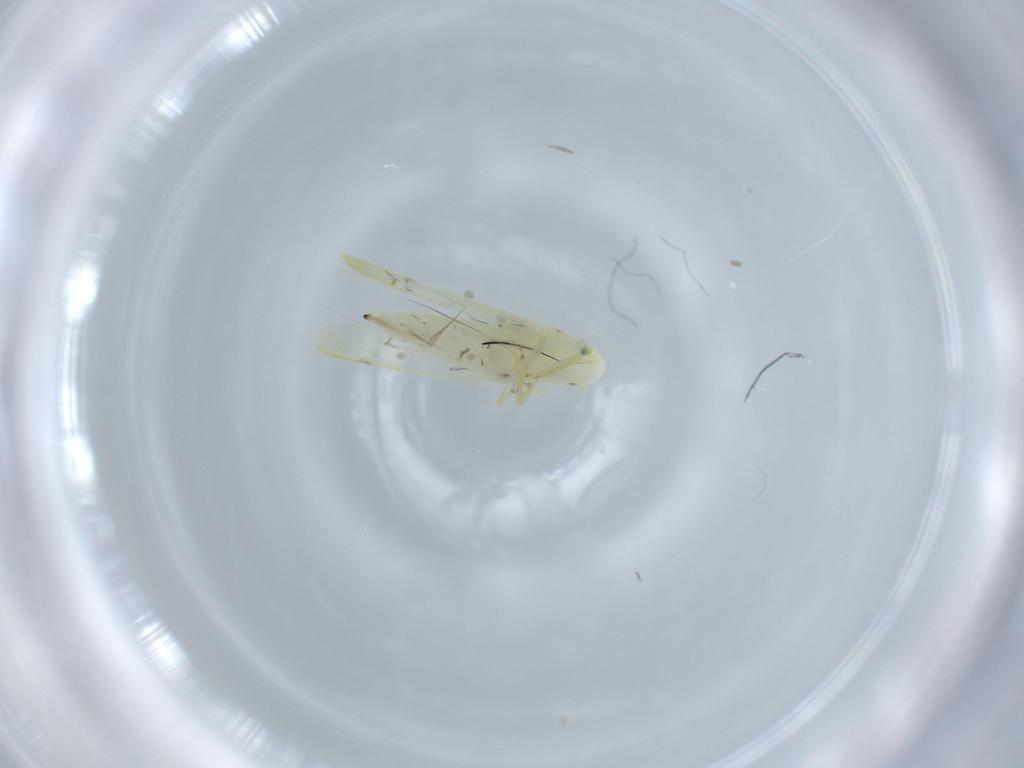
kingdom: Animalia
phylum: Arthropoda
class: Insecta
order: Hemiptera
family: Cicadellidae
